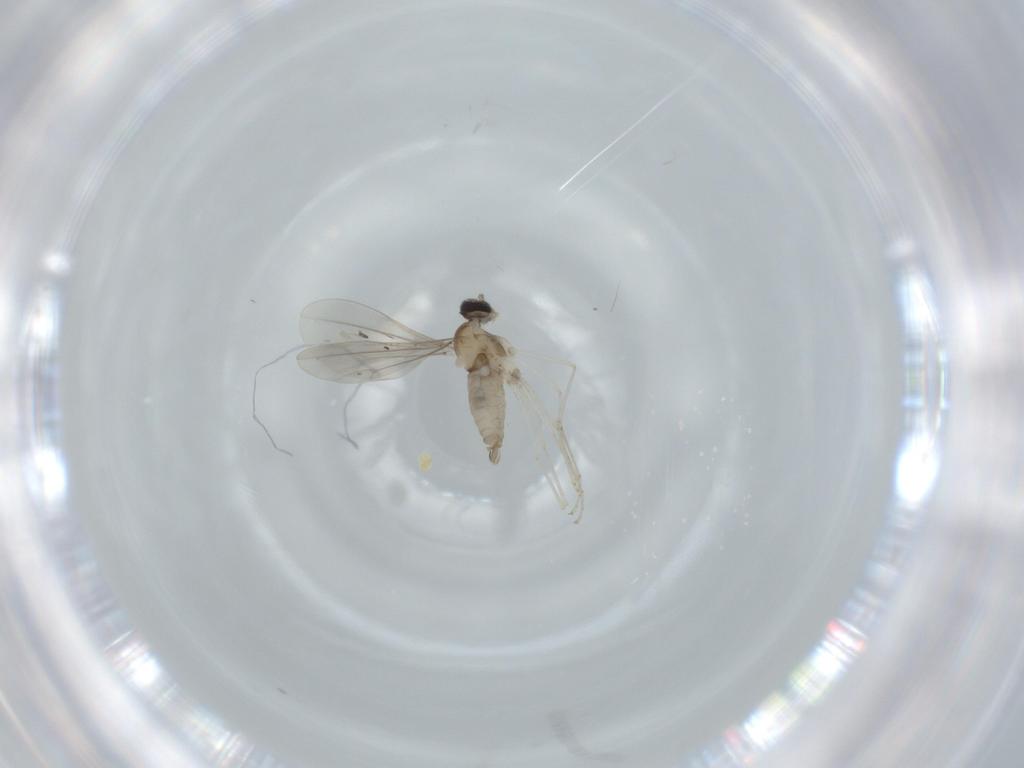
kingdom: Animalia
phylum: Arthropoda
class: Insecta
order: Diptera
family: Cecidomyiidae
